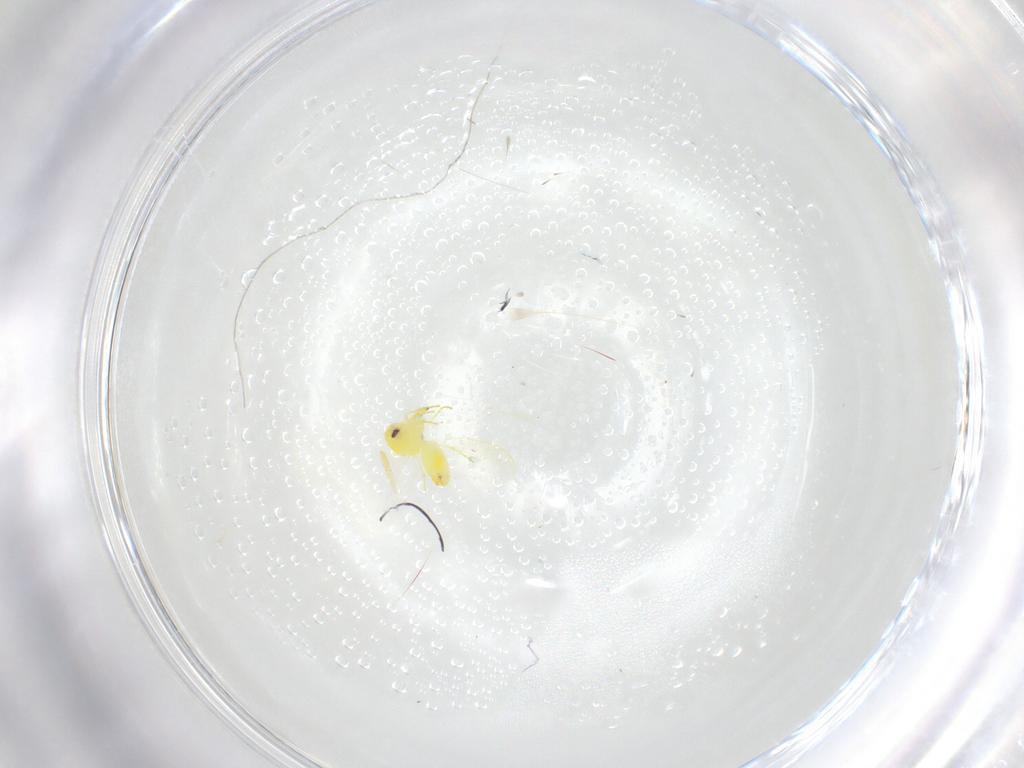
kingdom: Animalia
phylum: Arthropoda
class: Insecta
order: Hemiptera
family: Aleyrodidae
